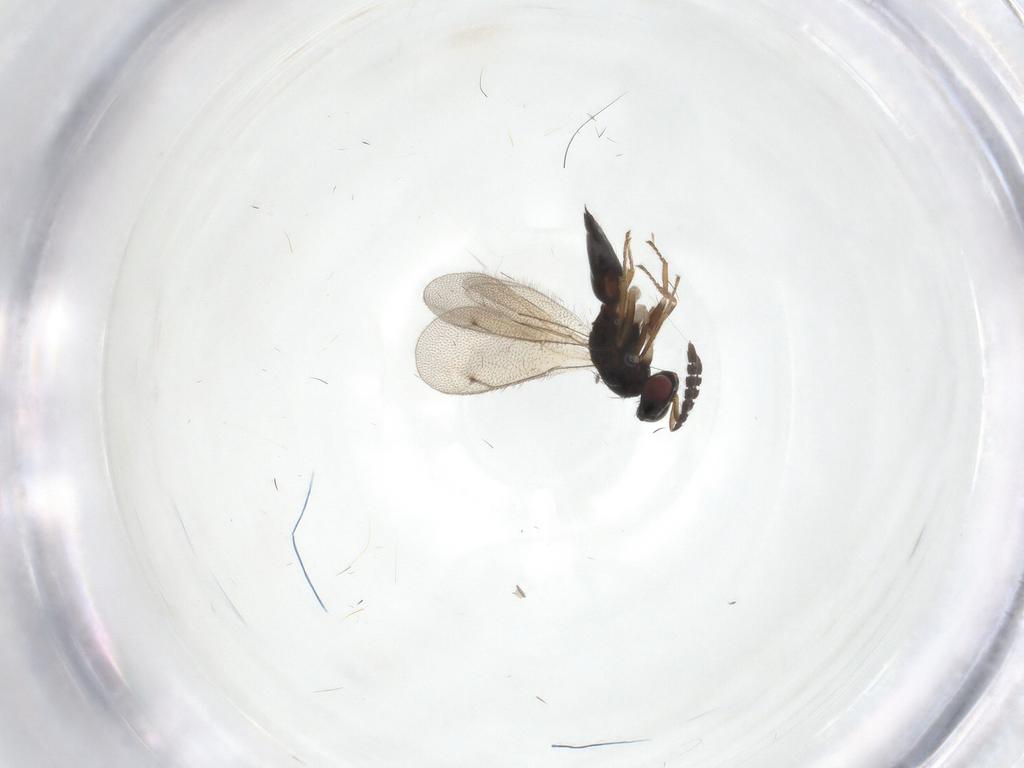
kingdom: Animalia
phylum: Arthropoda
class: Insecta
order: Hymenoptera
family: Eulophidae
